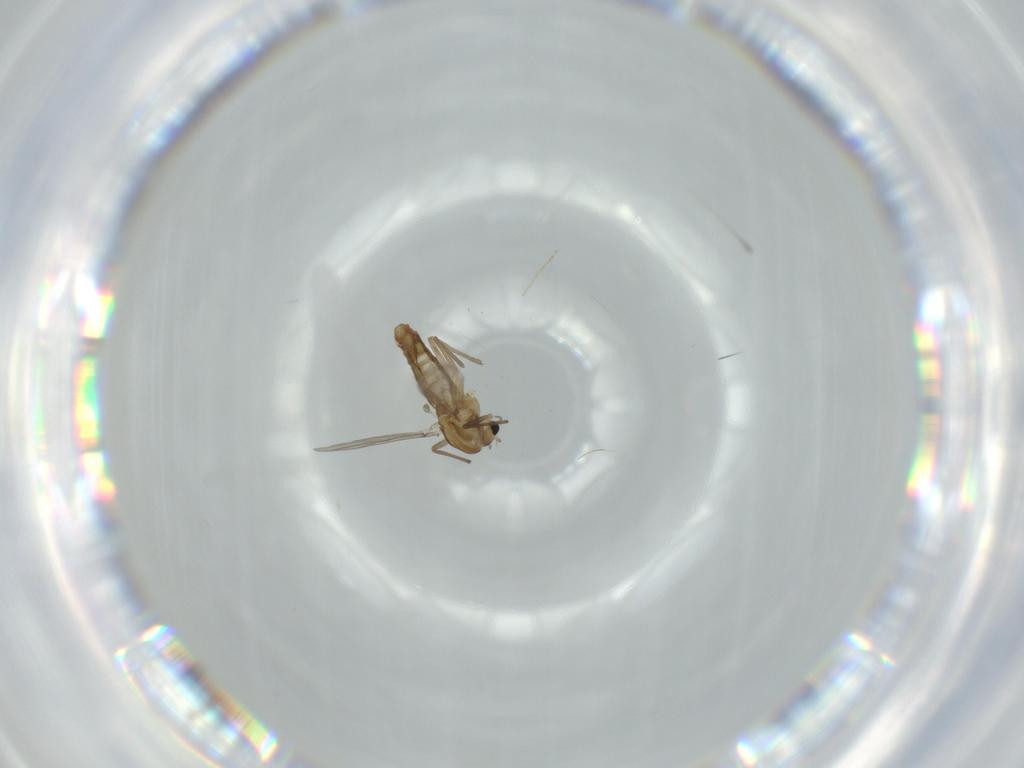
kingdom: Animalia
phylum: Arthropoda
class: Insecta
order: Diptera
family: Chironomidae
